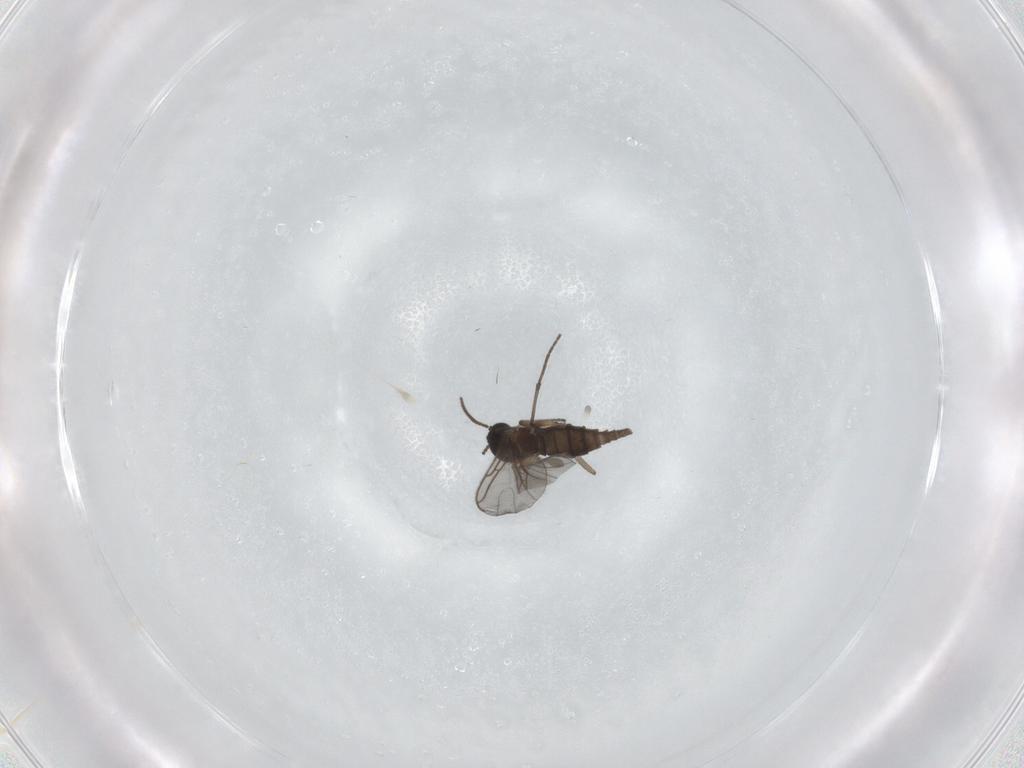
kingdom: Animalia
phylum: Arthropoda
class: Insecta
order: Diptera
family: Sciaridae
